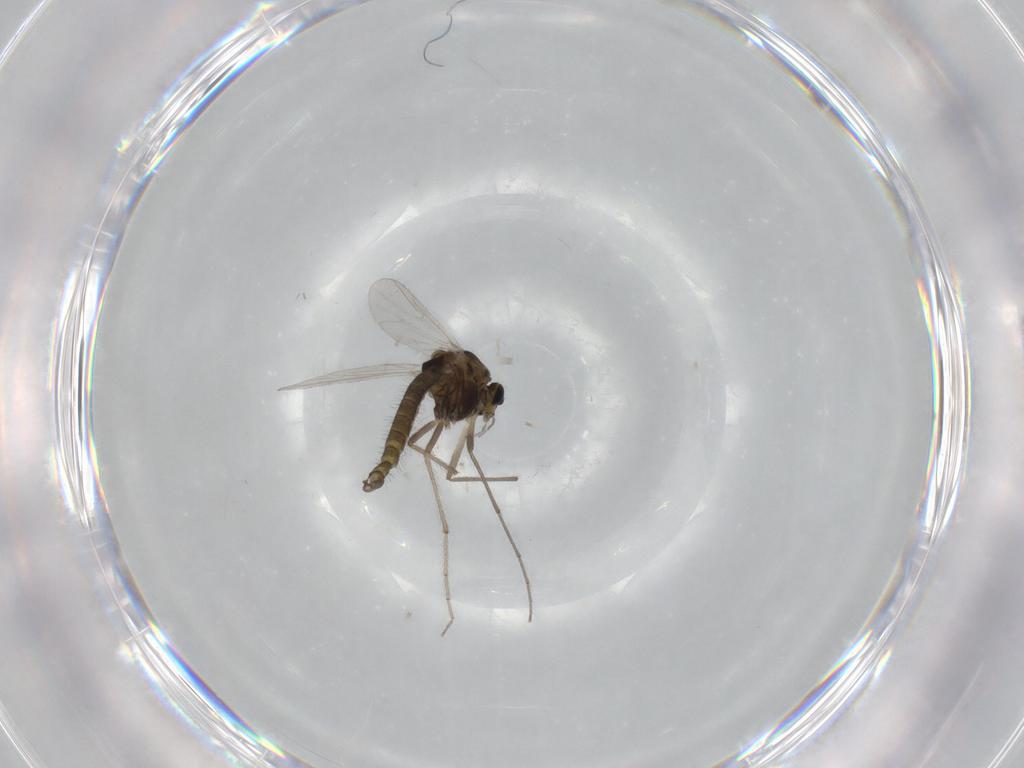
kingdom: Animalia
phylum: Arthropoda
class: Insecta
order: Diptera
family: Chironomidae
